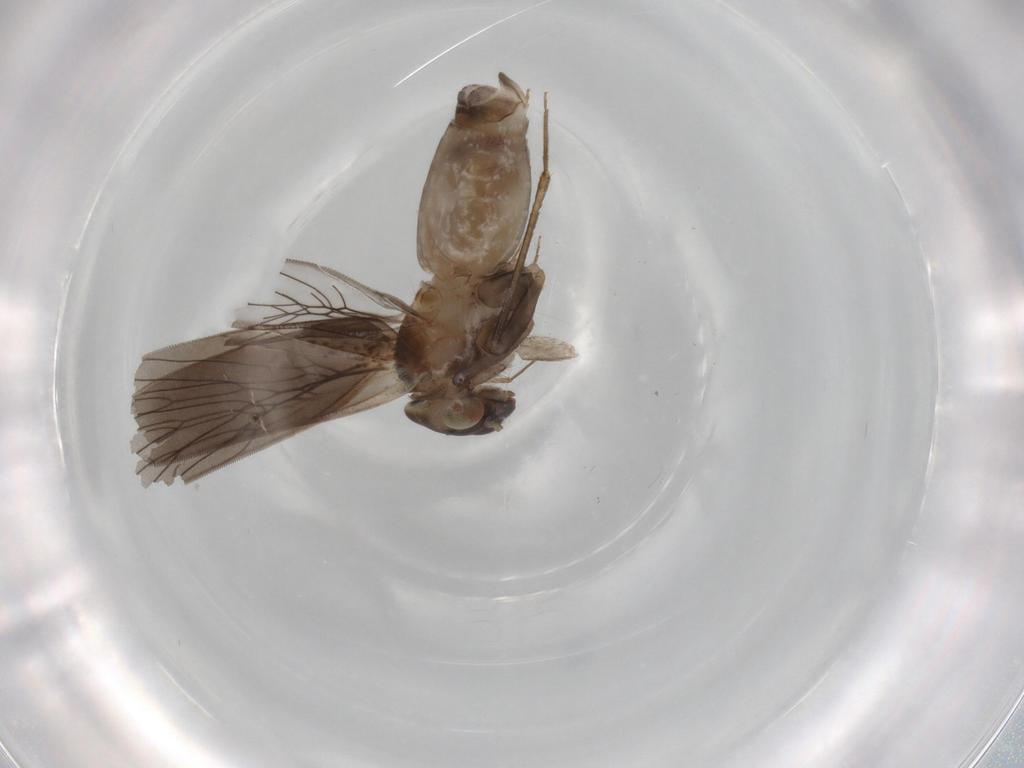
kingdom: Animalia
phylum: Arthropoda
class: Insecta
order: Psocodea
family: Lepidopsocidae
